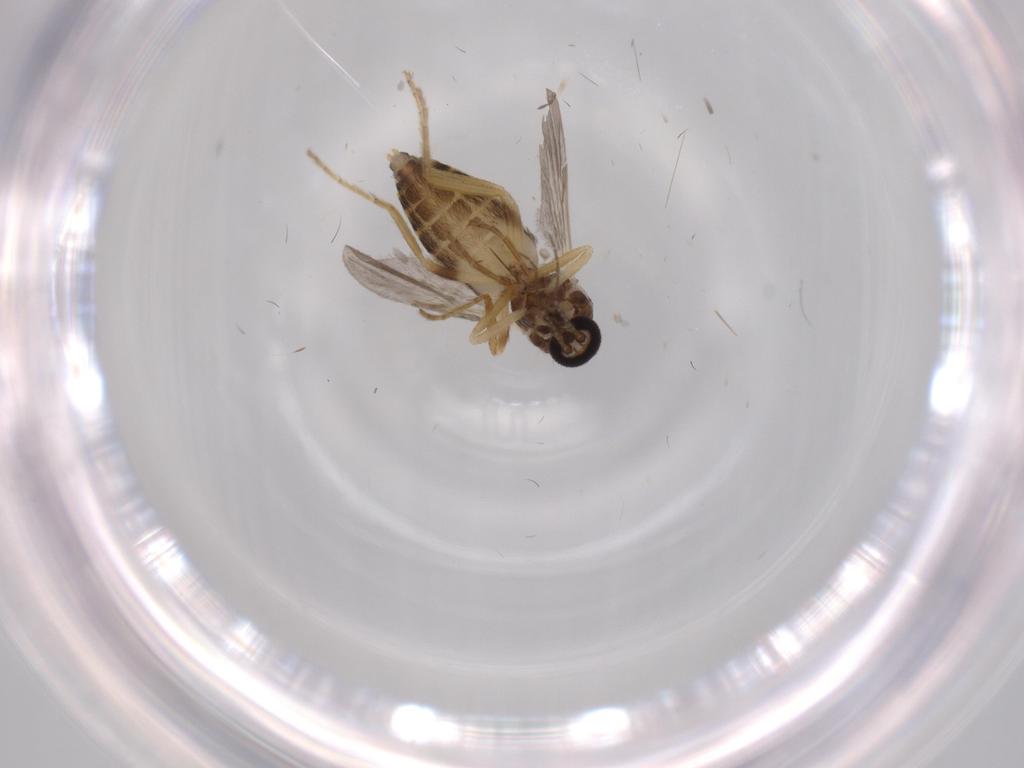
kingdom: Animalia
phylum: Arthropoda
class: Insecta
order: Diptera
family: Ceratopogonidae
